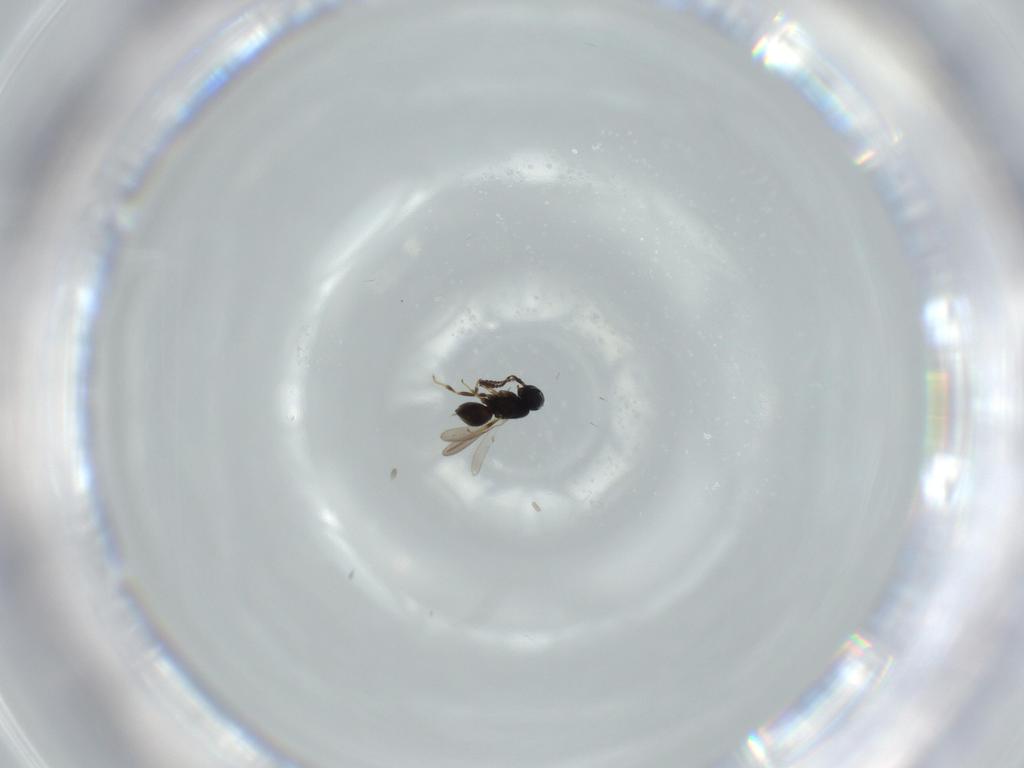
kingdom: Animalia
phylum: Arthropoda
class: Insecta
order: Hymenoptera
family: Scelionidae
